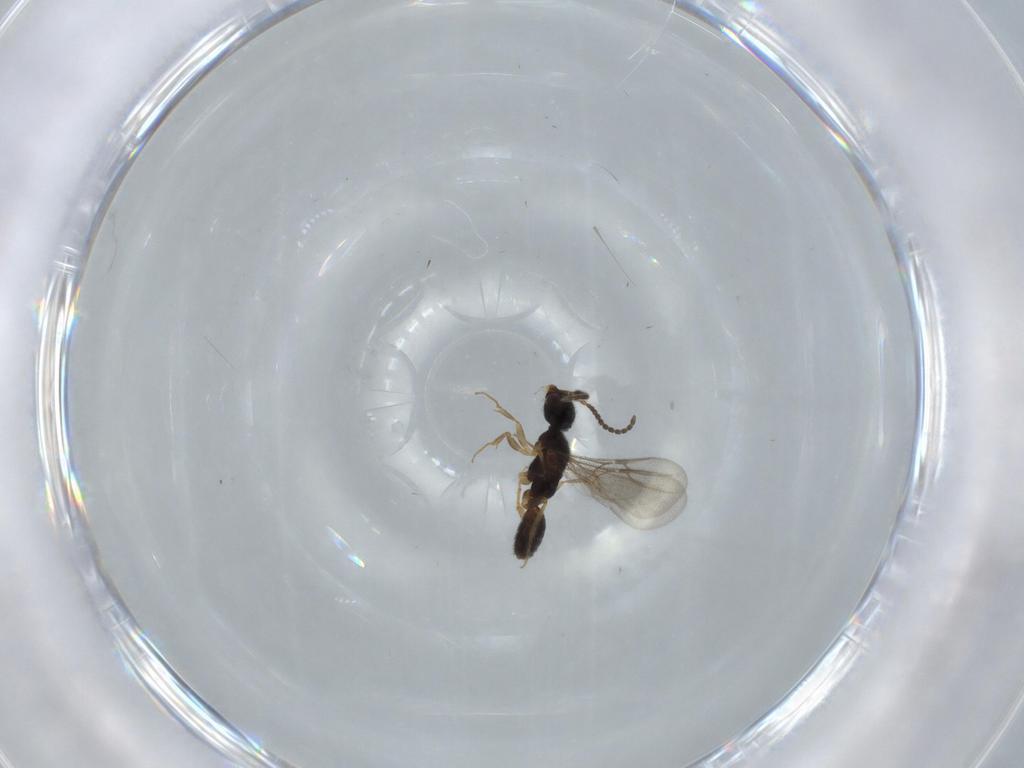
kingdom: Animalia
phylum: Arthropoda
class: Insecta
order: Hymenoptera
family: Bethylidae
